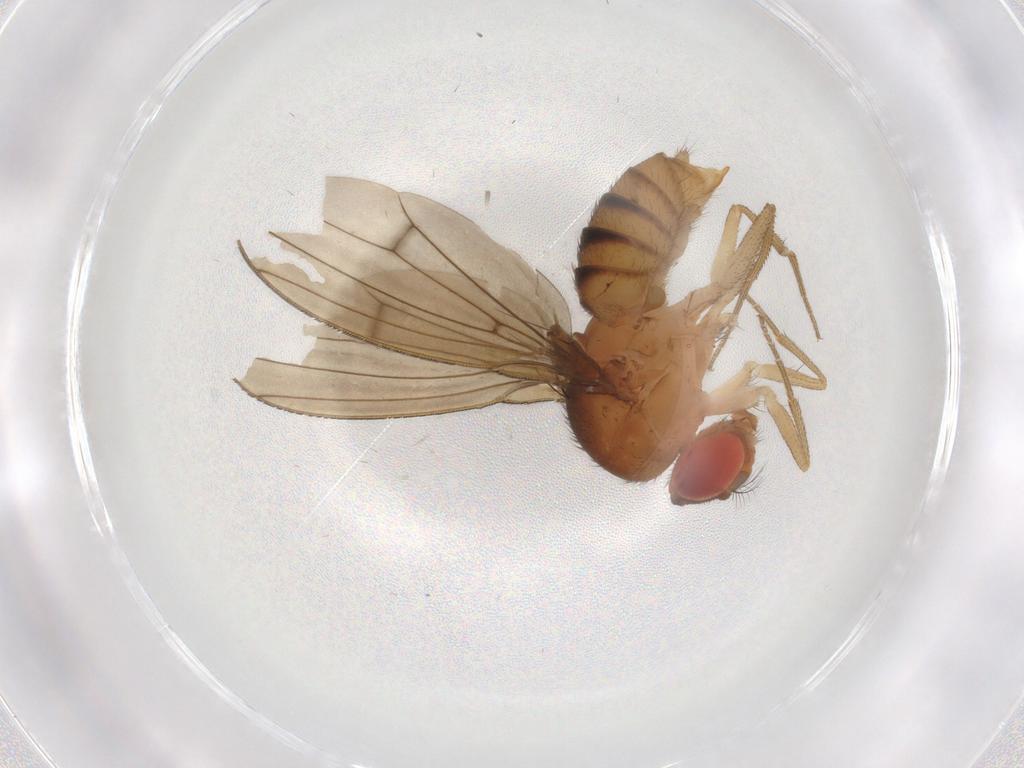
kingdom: Animalia
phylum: Arthropoda
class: Insecta
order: Diptera
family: Drosophilidae
